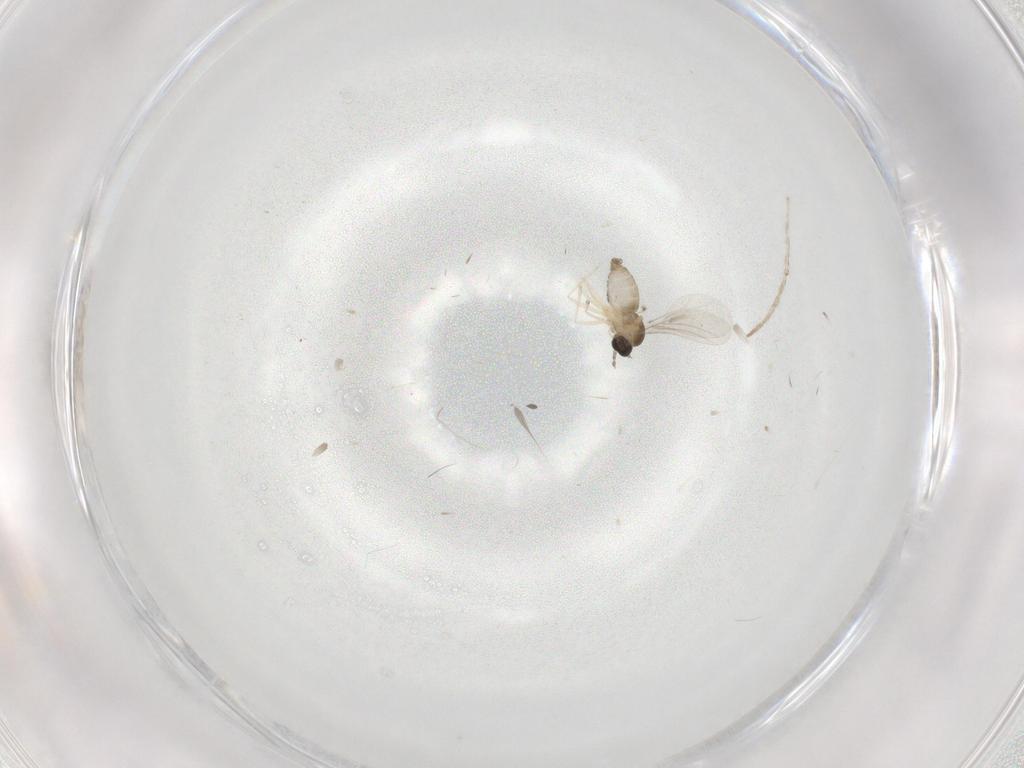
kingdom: Animalia
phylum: Arthropoda
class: Insecta
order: Diptera
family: Chironomidae
